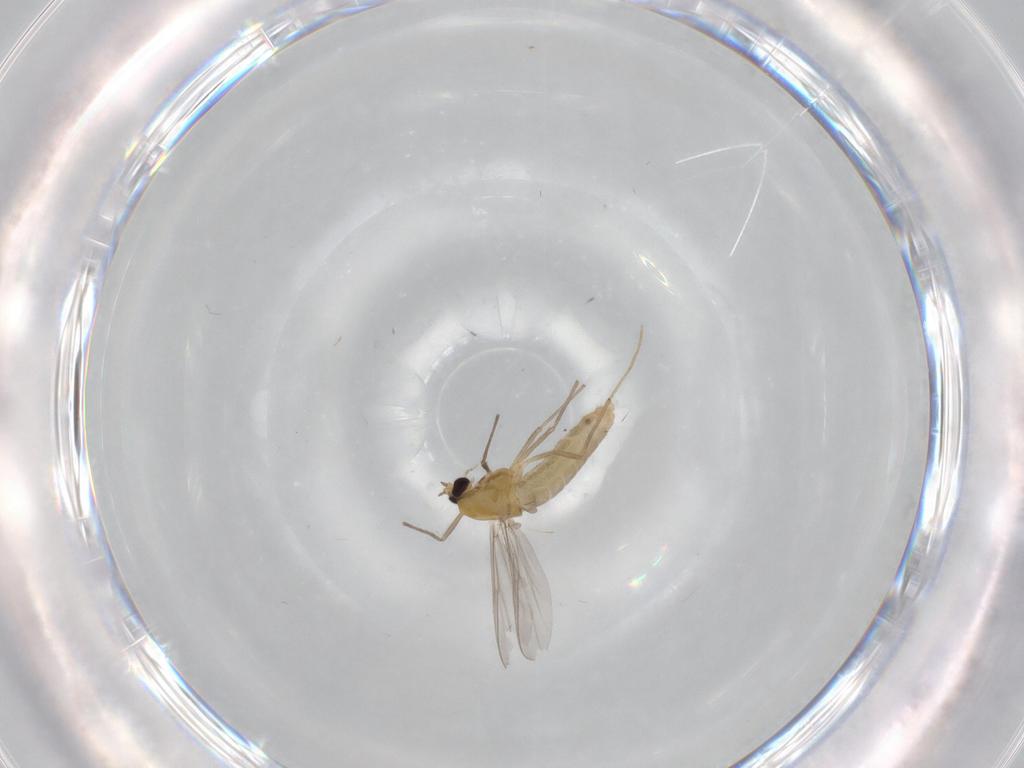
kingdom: Animalia
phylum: Arthropoda
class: Insecta
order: Diptera
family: Chironomidae
